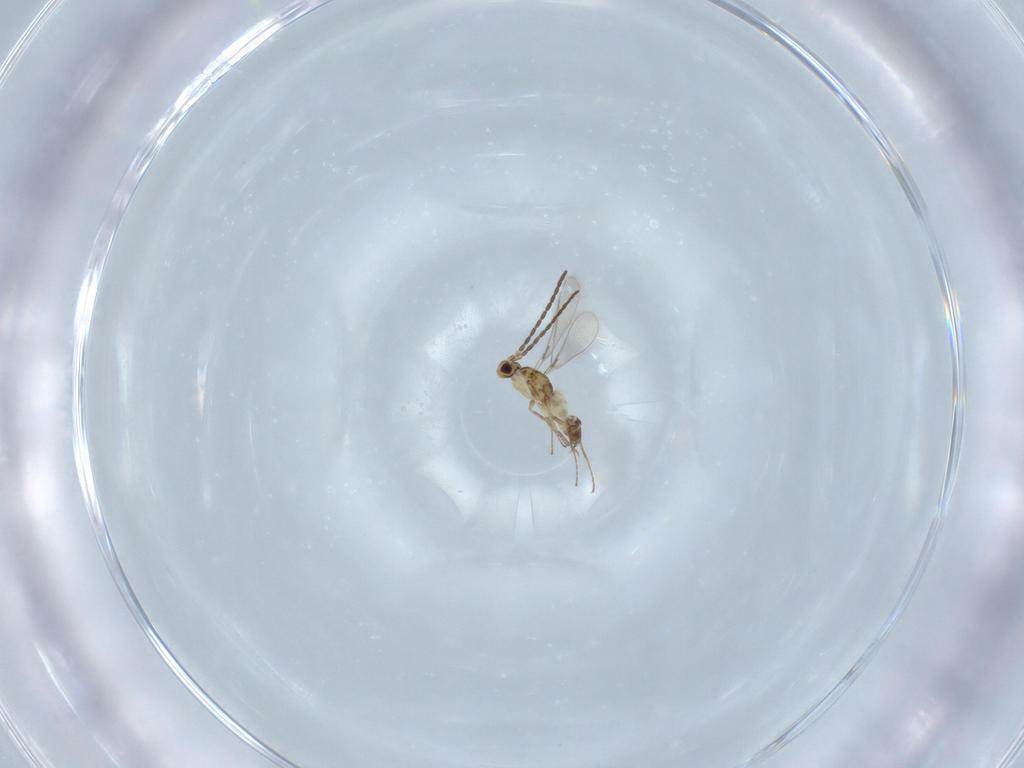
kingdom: Animalia
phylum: Arthropoda
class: Insecta
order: Hymenoptera
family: Mymaridae
